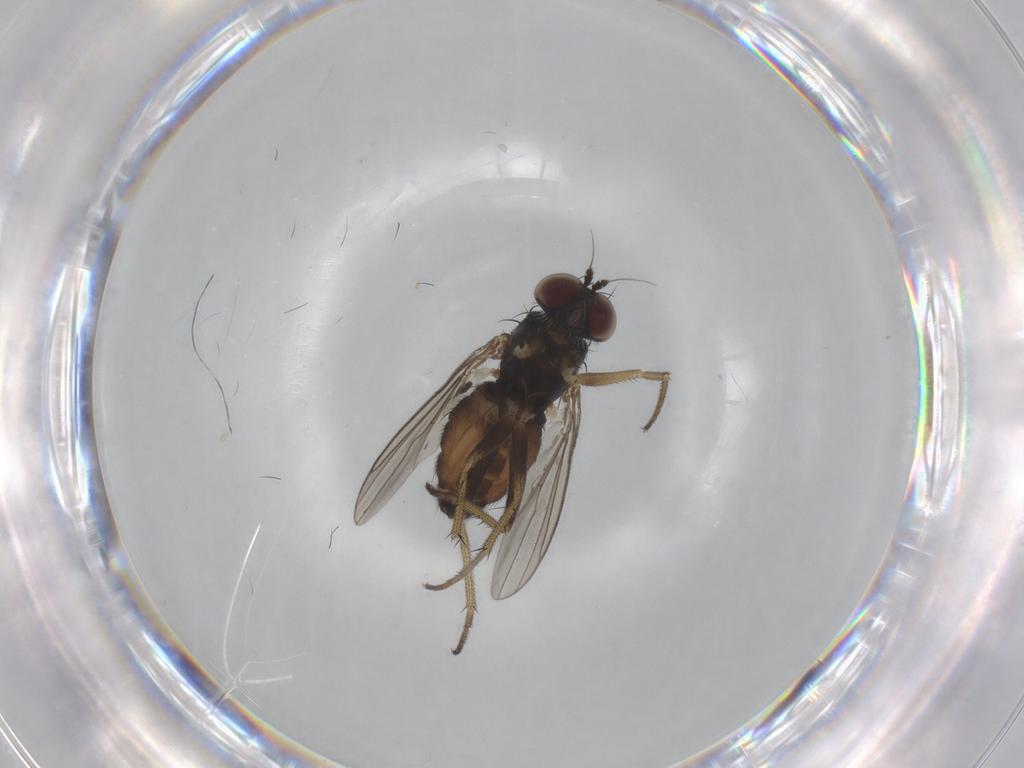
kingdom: Animalia
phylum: Arthropoda
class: Insecta
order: Diptera
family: Dolichopodidae
